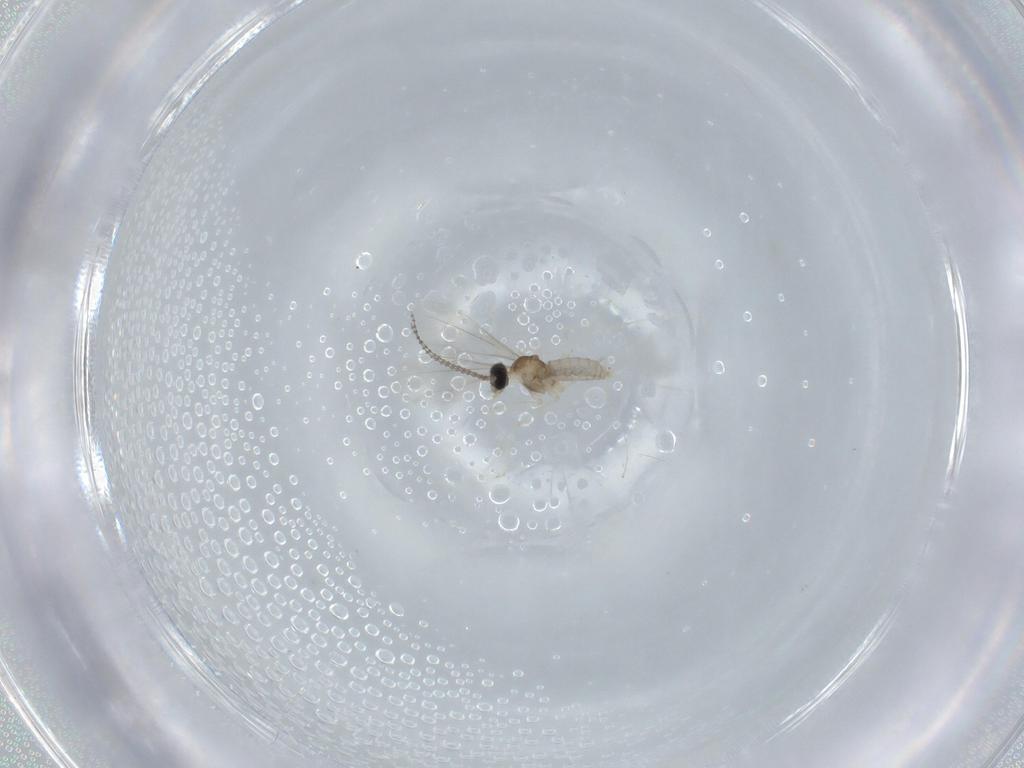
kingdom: Animalia
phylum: Arthropoda
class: Insecta
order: Diptera
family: Cecidomyiidae
